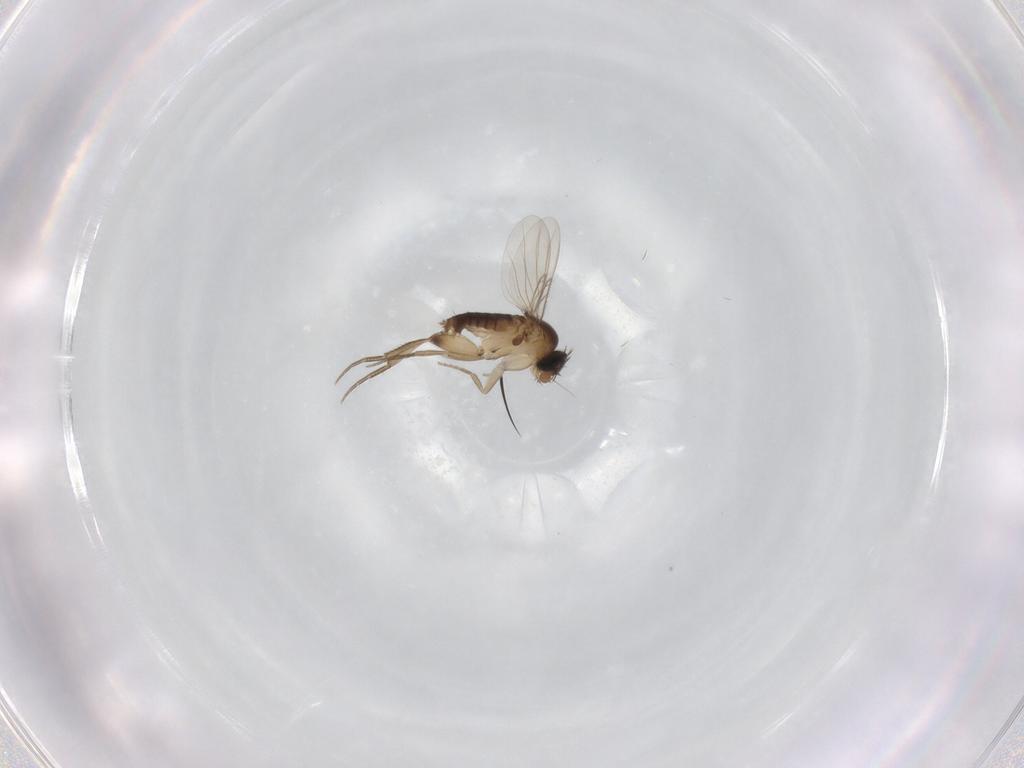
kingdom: Animalia
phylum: Arthropoda
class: Insecta
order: Diptera
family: Phoridae
